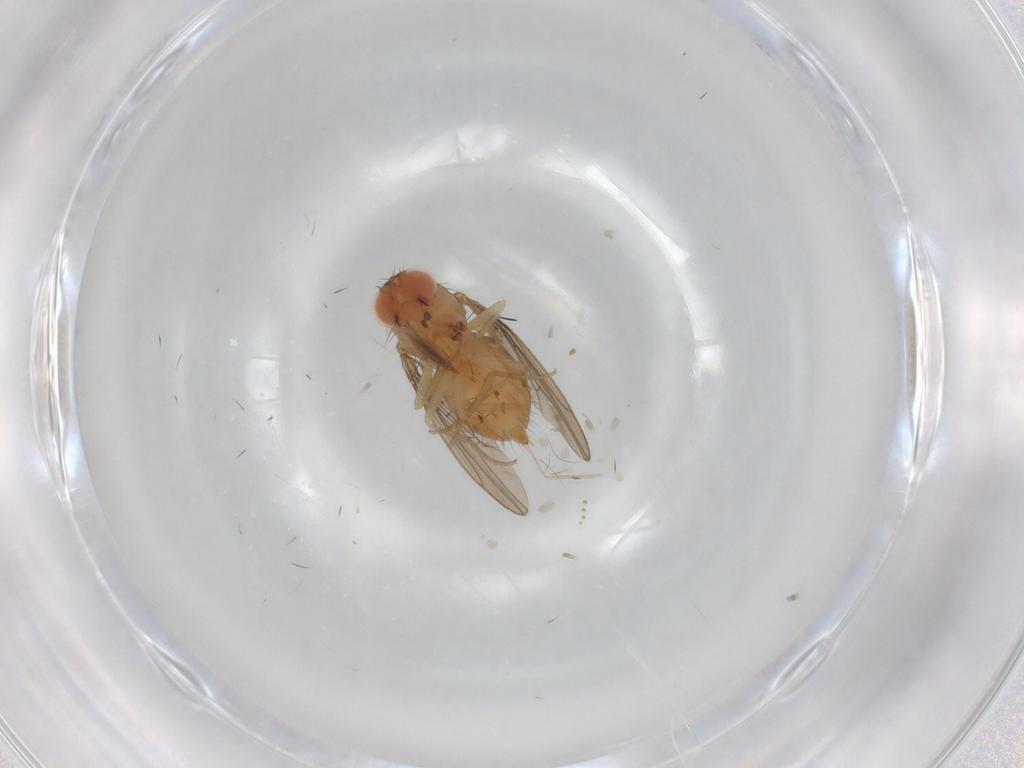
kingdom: Animalia
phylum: Arthropoda
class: Insecta
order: Diptera
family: Drosophilidae
